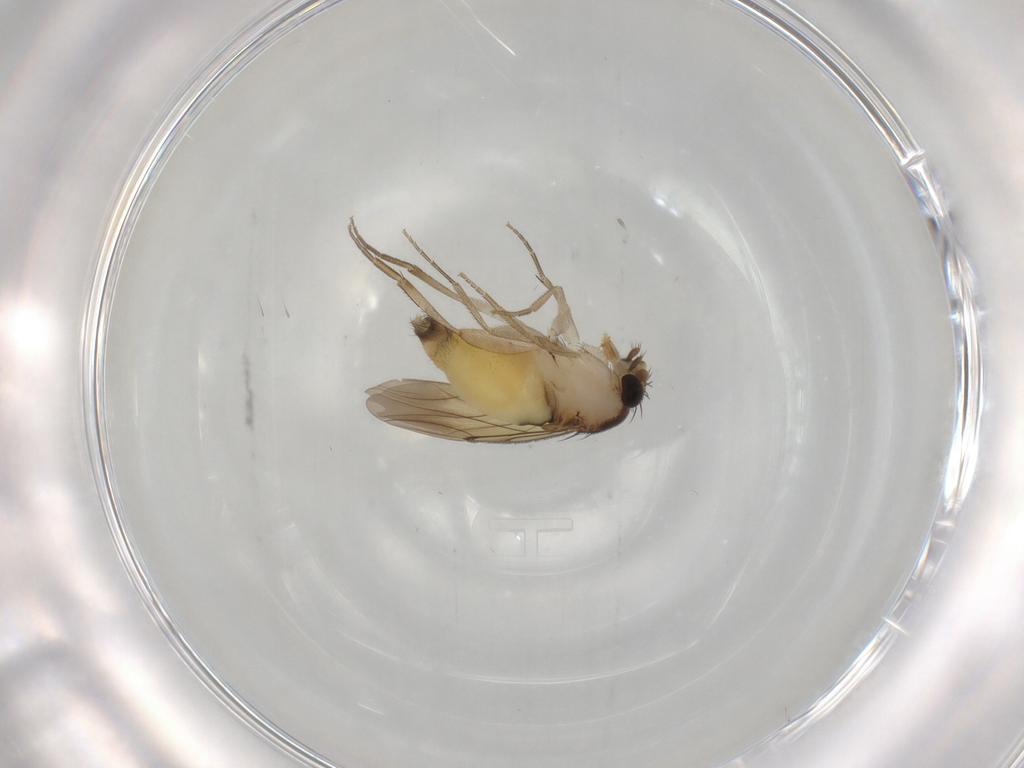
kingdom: Animalia
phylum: Arthropoda
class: Insecta
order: Diptera
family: Phoridae
